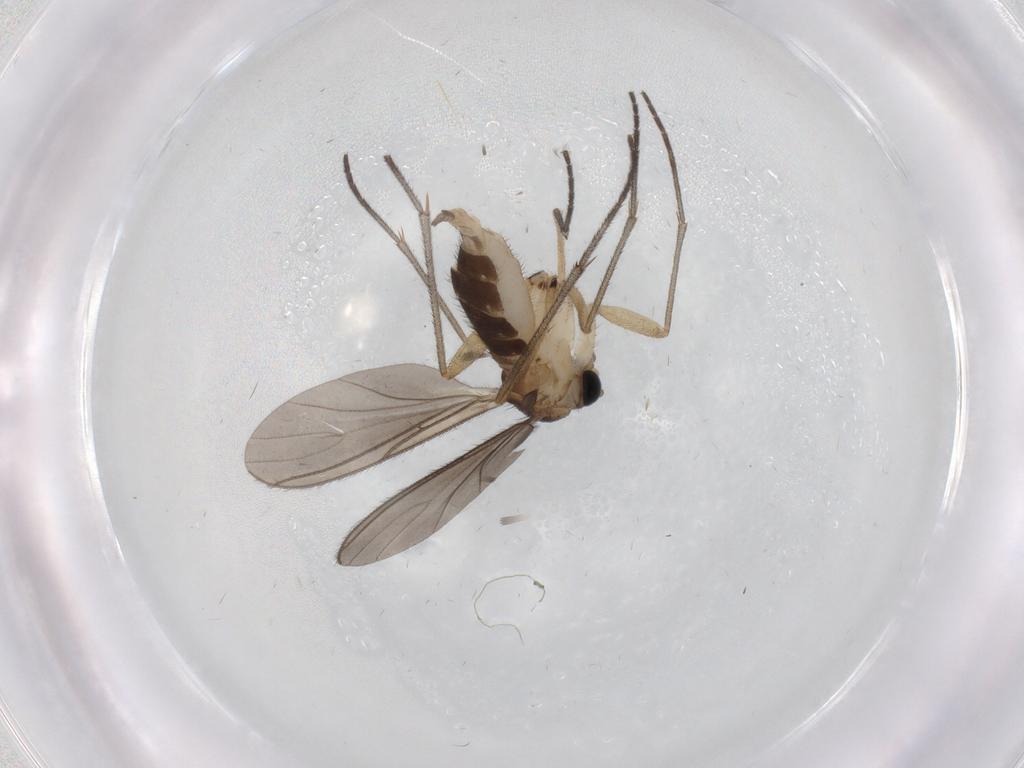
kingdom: Animalia
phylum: Arthropoda
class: Insecta
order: Diptera
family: Sciaridae
